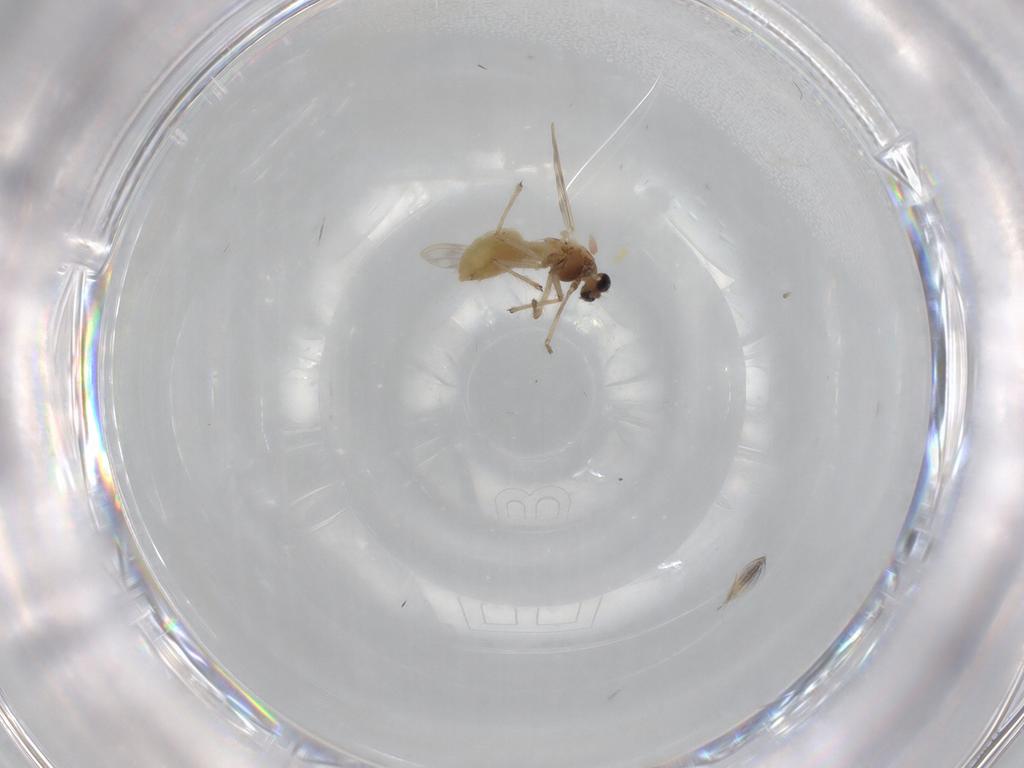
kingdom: Animalia
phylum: Arthropoda
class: Insecta
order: Diptera
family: Chironomidae
